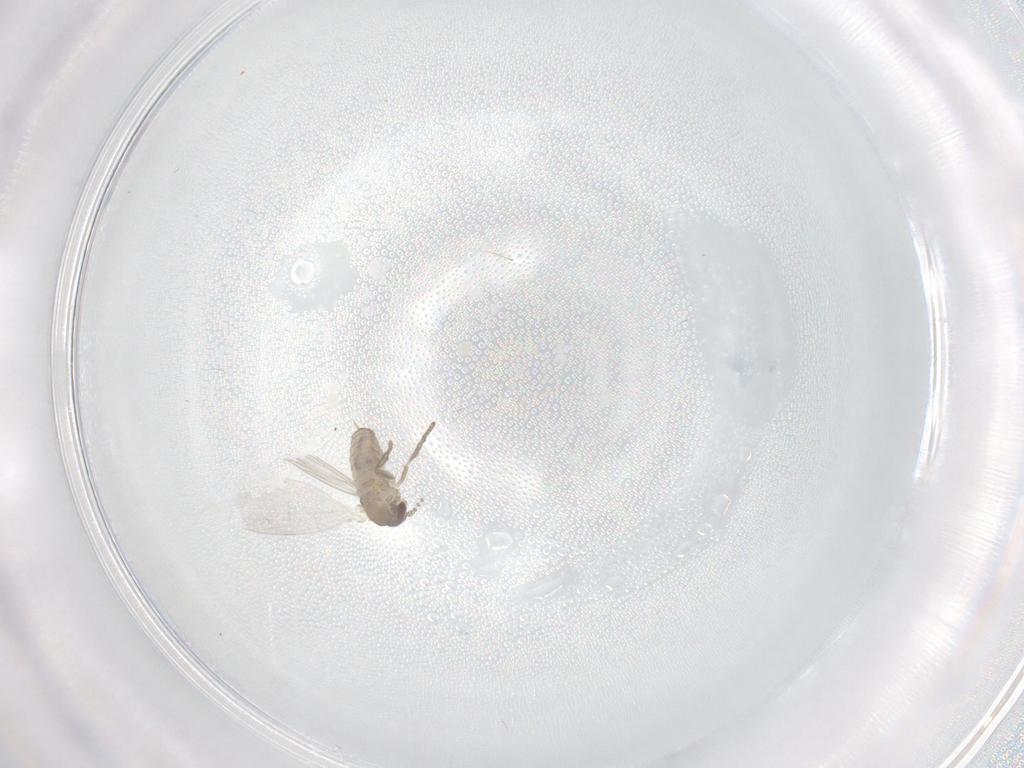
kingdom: Animalia
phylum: Arthropoda
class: Insecta
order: Diptera
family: Psychodidae
